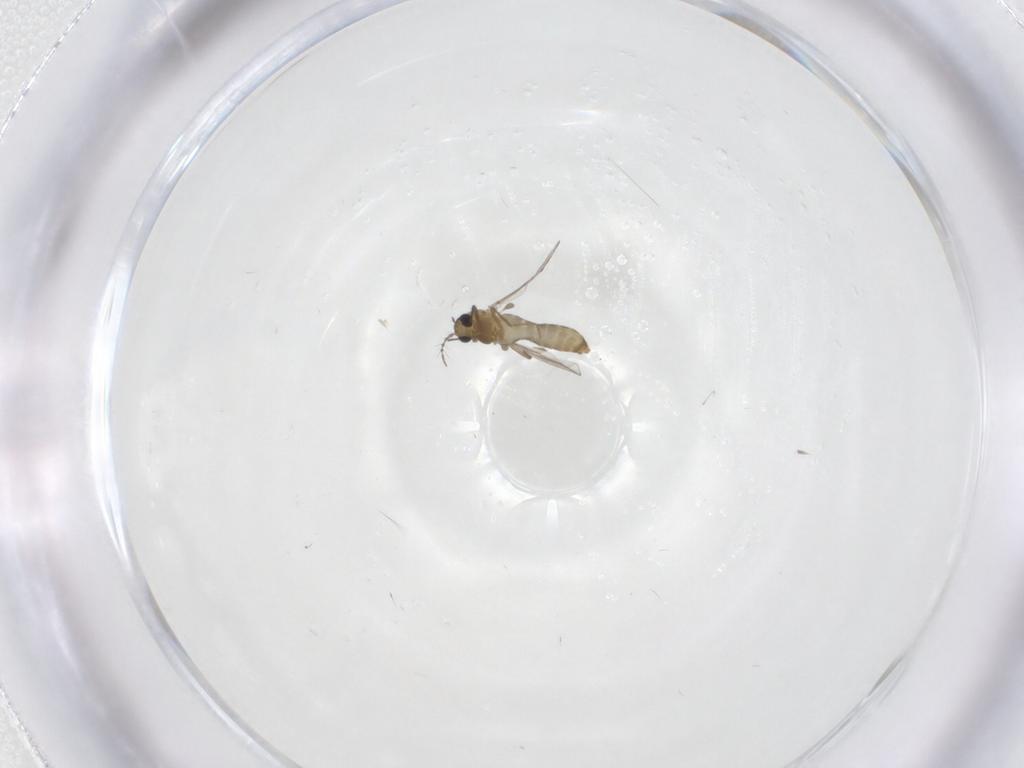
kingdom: Animalia
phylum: Arthropoda
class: Insecta
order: Diptera
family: Chironomidae
